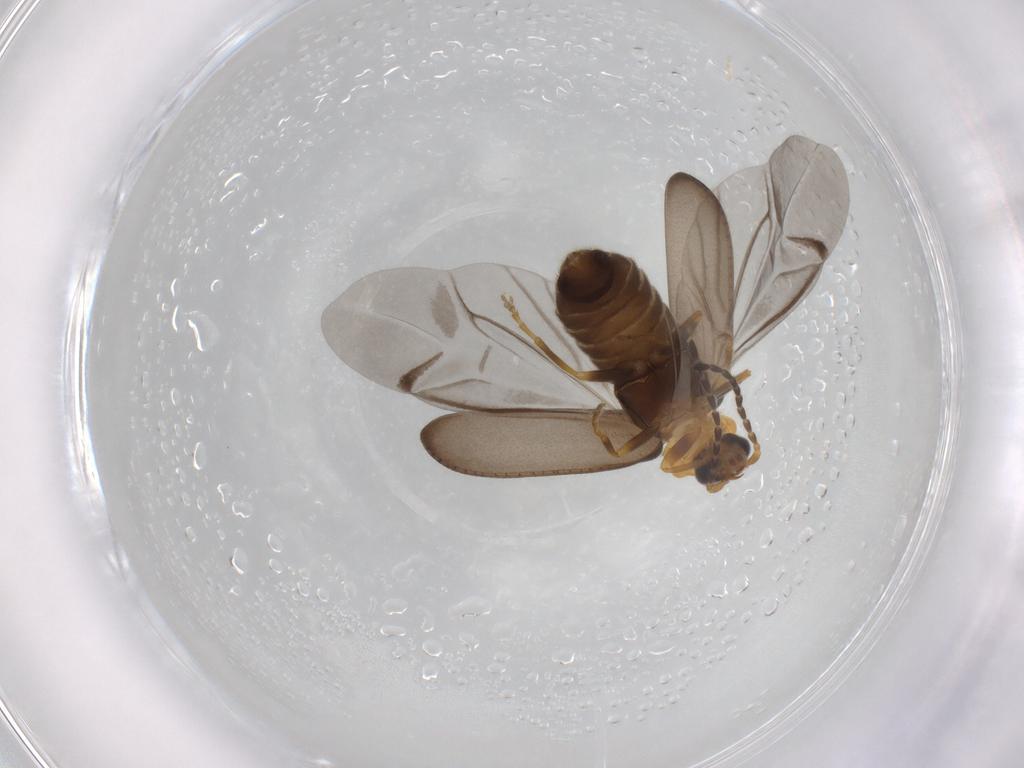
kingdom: Animalia
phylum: Arthropoda
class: Insecta
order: Coleoptera
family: Cantharidae
